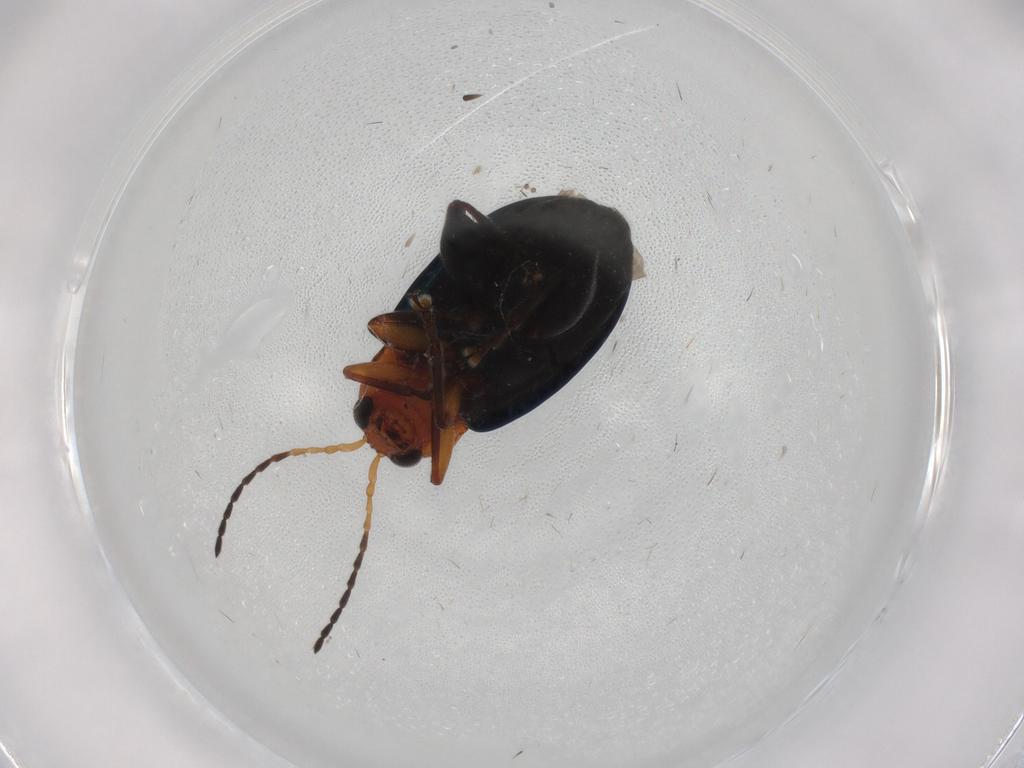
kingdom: Animalia
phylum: Arthropoda
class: Insecta
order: Coleoptera
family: Chrysomelidae
